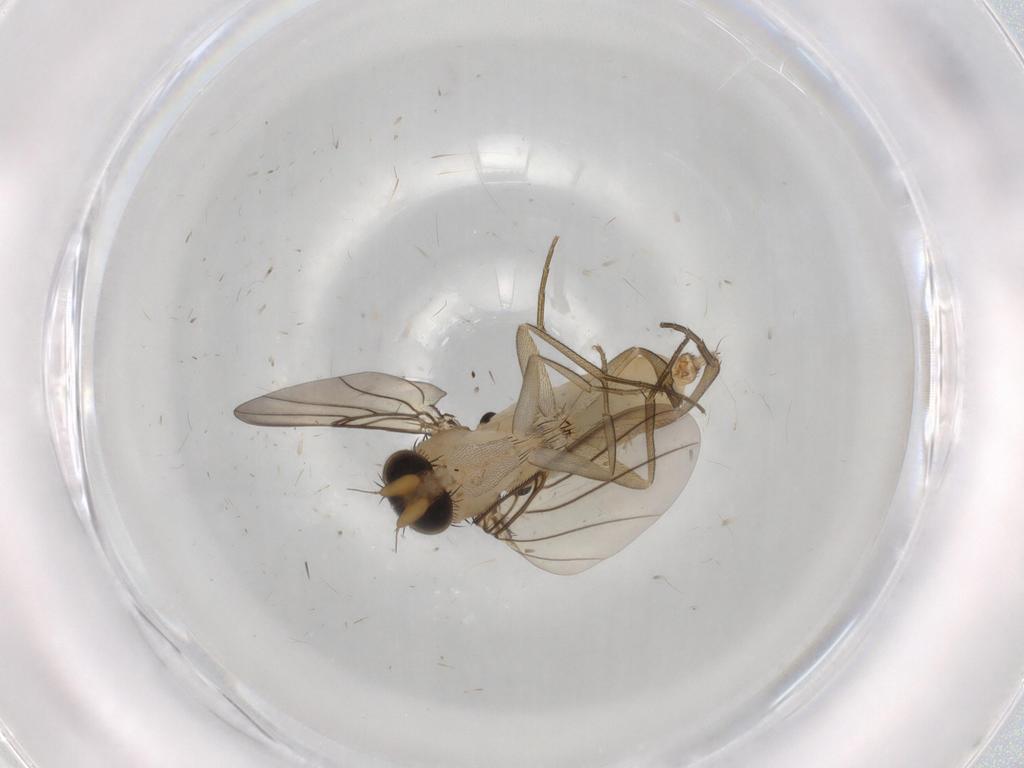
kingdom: Animalia
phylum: Arthropoda
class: Insecta
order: Diptera
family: Phoridae
